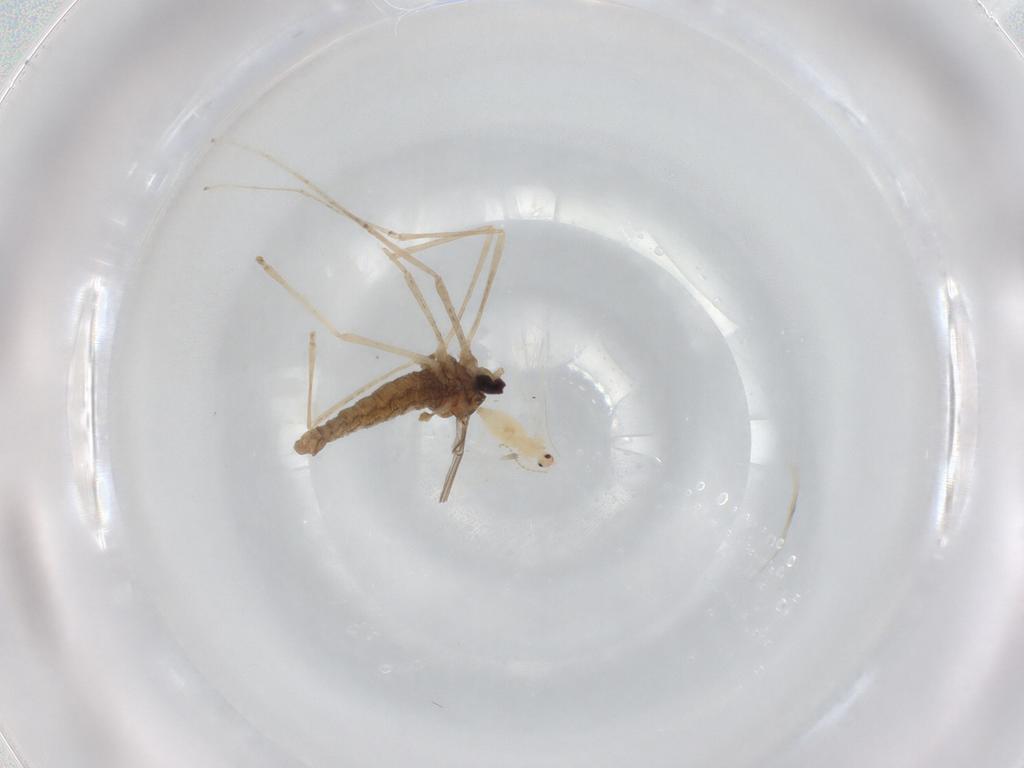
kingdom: Animalia
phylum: Arthropoda
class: Insecta
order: Diptera
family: Cecidomyiidae
